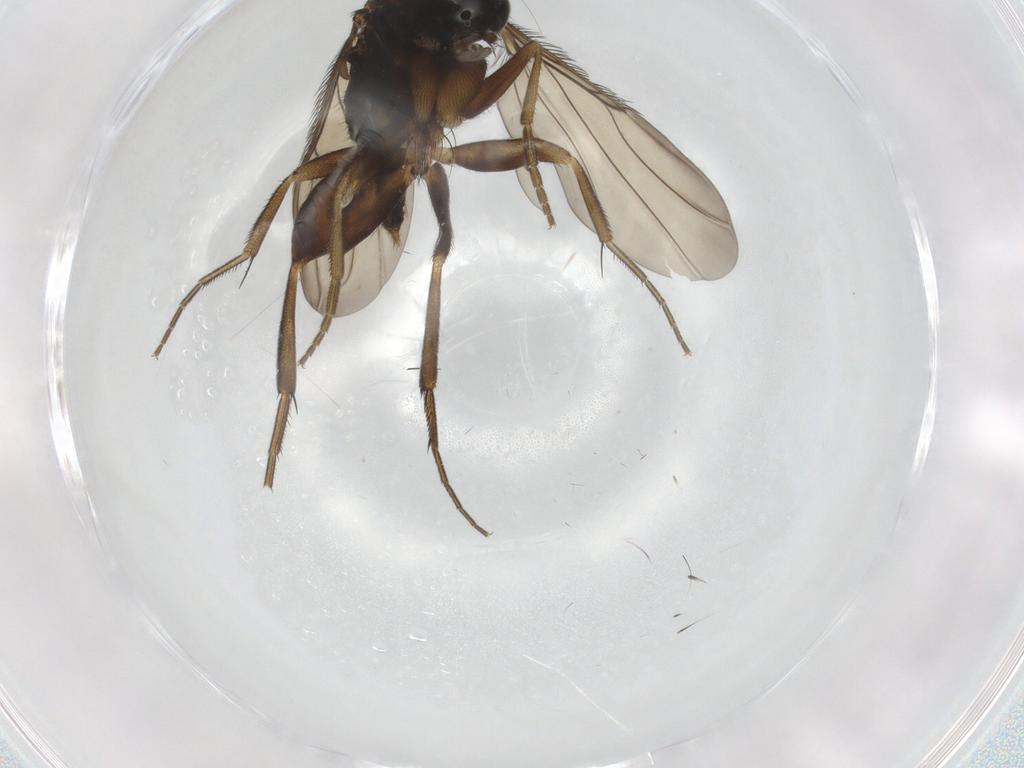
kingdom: Animalia
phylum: Arthropoda
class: Insecta
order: Diptera
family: Phoridae
